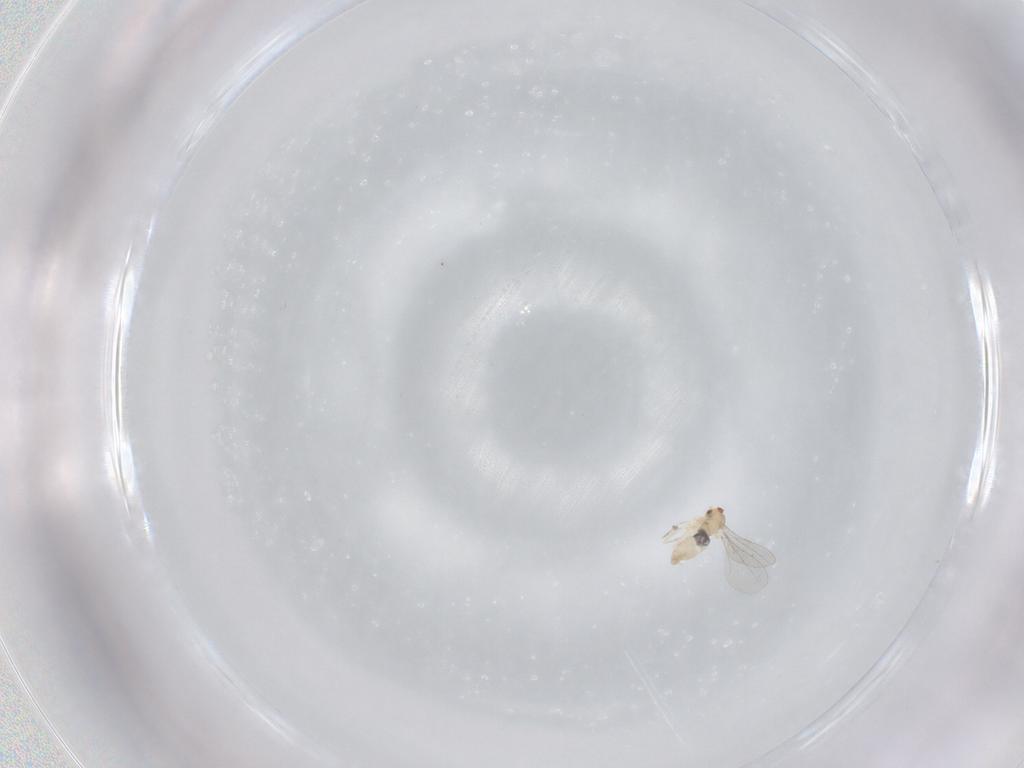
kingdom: Animalia
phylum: Arthropoda
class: Insecta
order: Diptera
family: Cecidomyiidae
